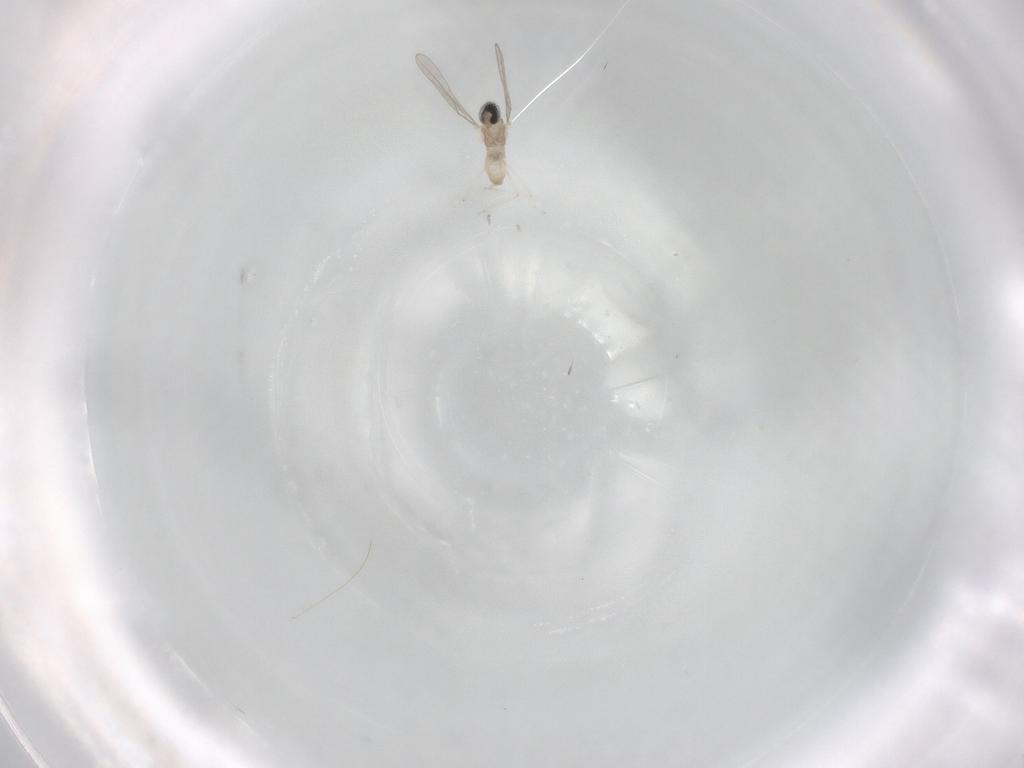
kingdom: Animalia
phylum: Arthropoda
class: Insecta
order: Diptera
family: Cecidomyiidae
